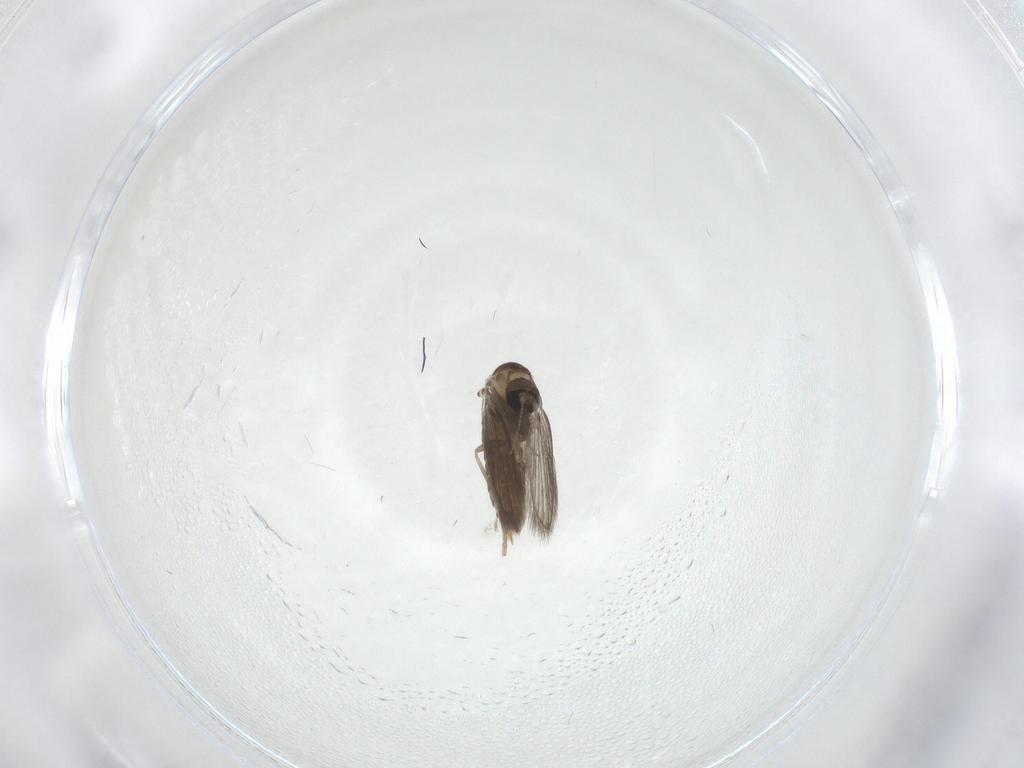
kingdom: Animalia
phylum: Arthropoda
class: Insecta
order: Diptera
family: Psychodidae
